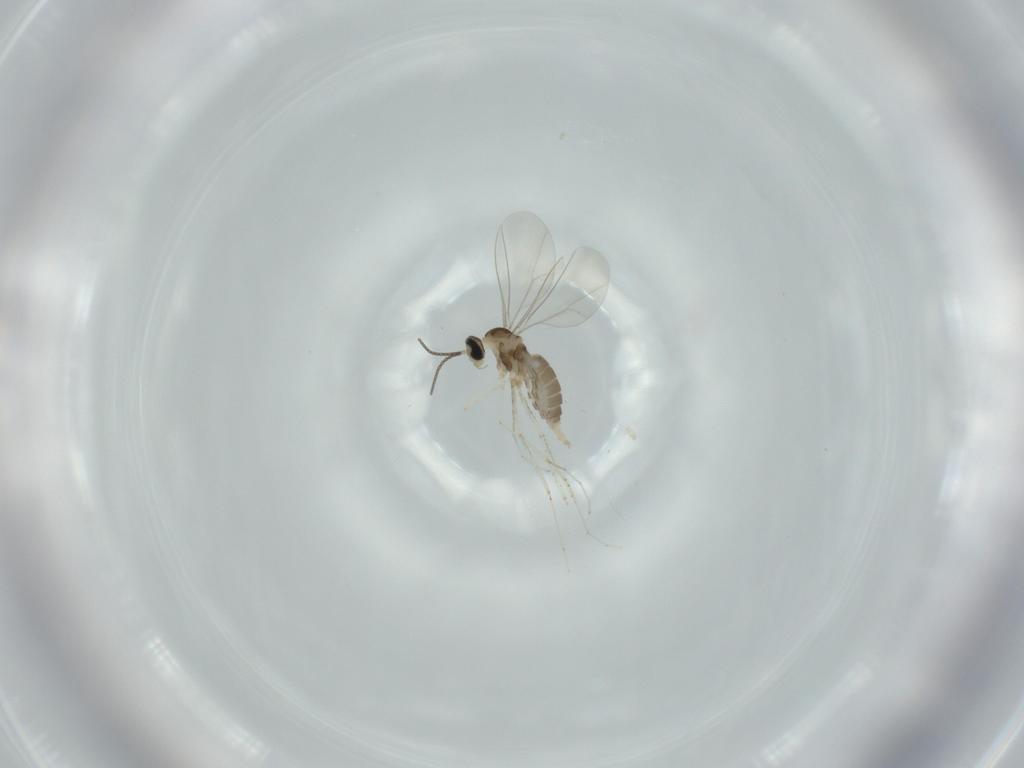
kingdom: Animalia
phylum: Arthropoda
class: Insecta
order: Diptera
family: Cecidomyiidae
